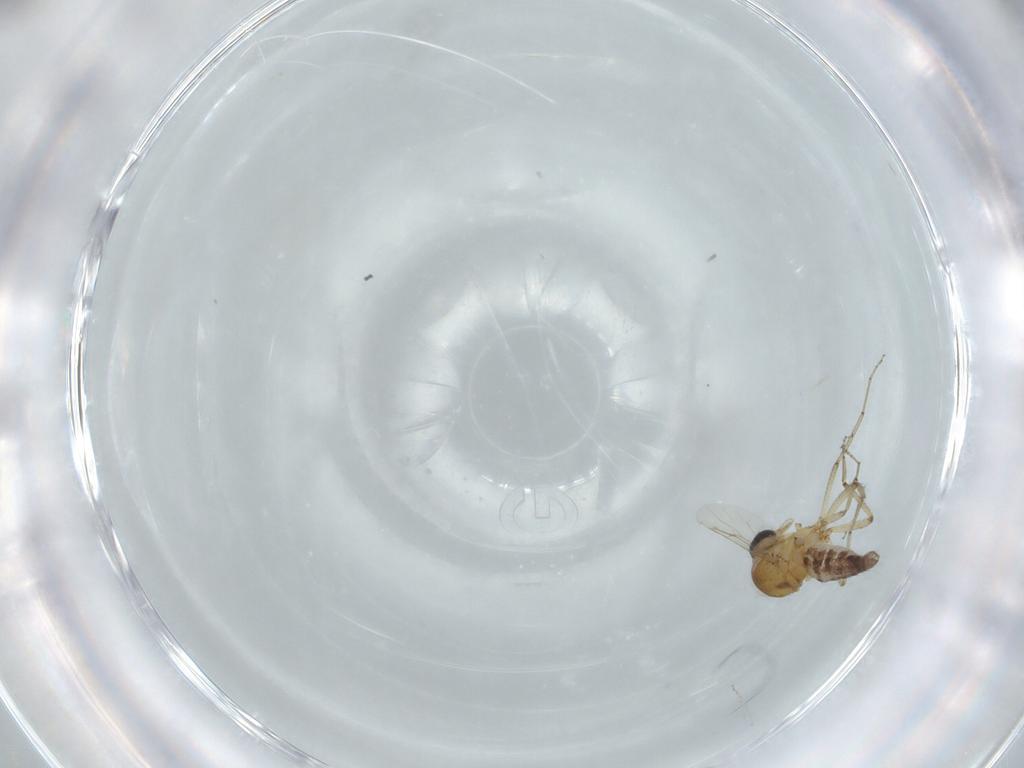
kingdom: Animalia
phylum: Arthropoda
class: Insecta
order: Diptera
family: Ceratopogonidae
